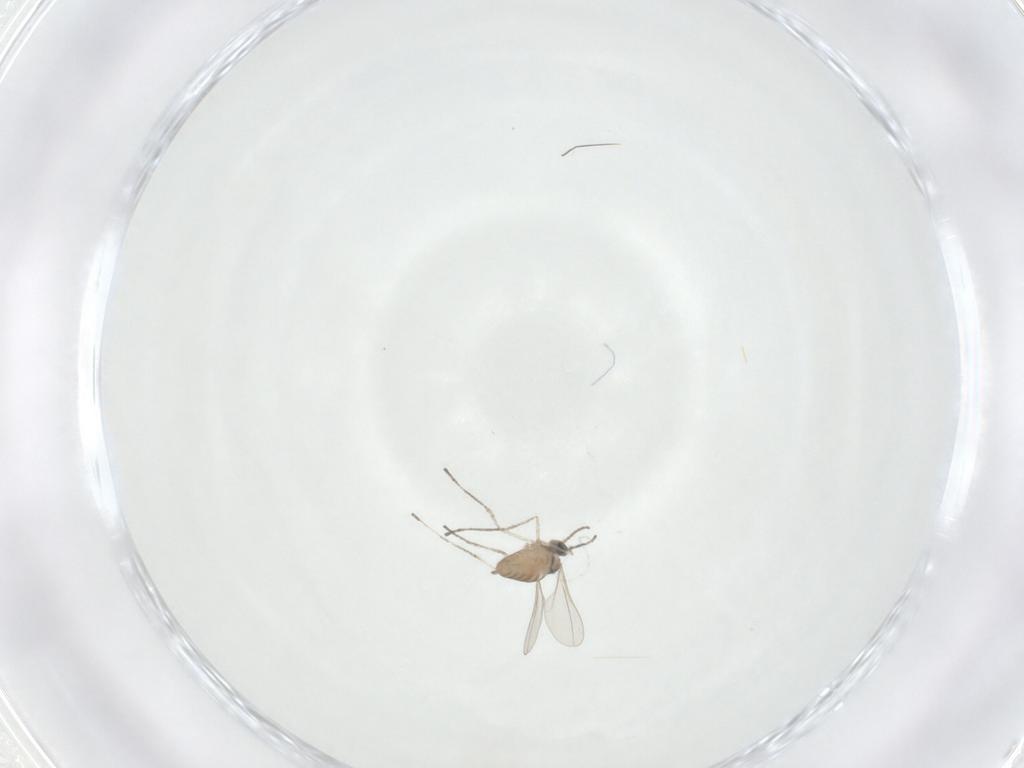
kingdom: Animalia
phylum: Arthropoda
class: Insecta
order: Diptera
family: Cecidomyiidae
